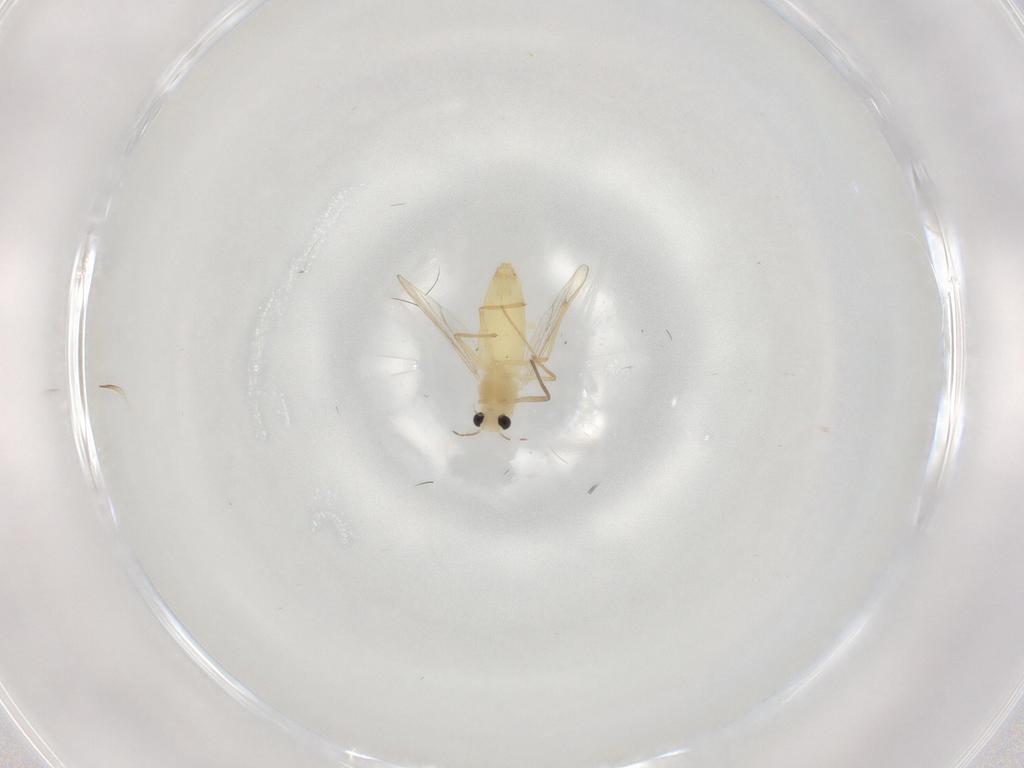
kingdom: Animalia
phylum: Arthropoda
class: Insecta
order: Diptera
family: Chironomidae
